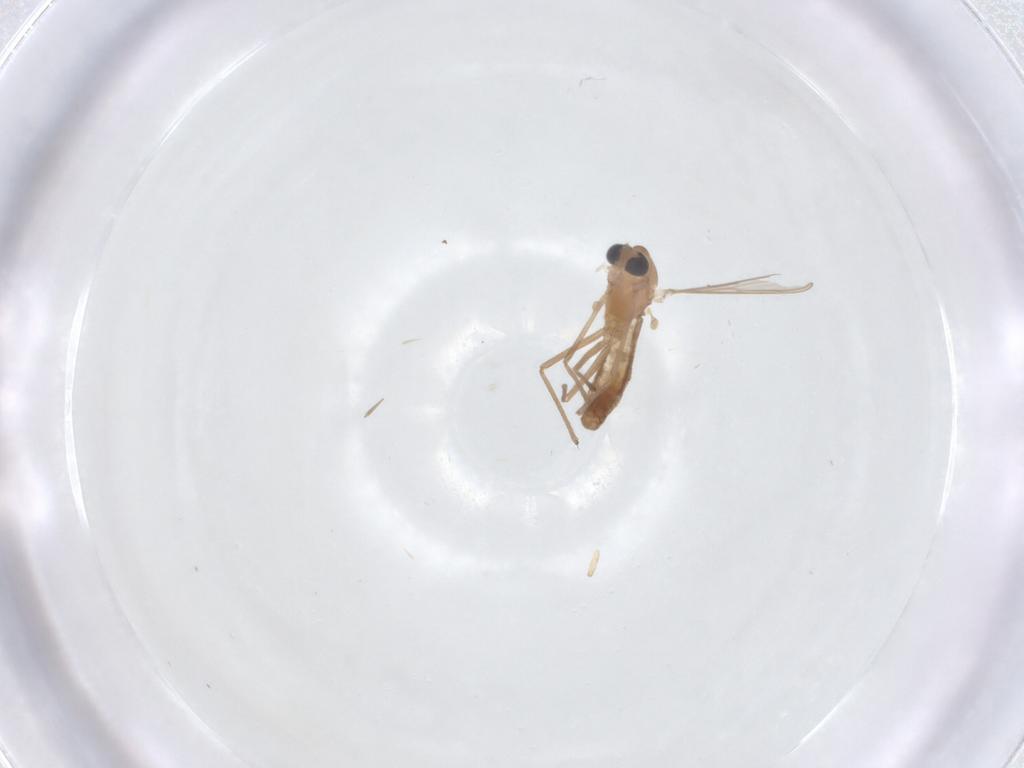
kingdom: Animalia
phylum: Arthropoda
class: Insecta
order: Diptera
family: Chironomidae
